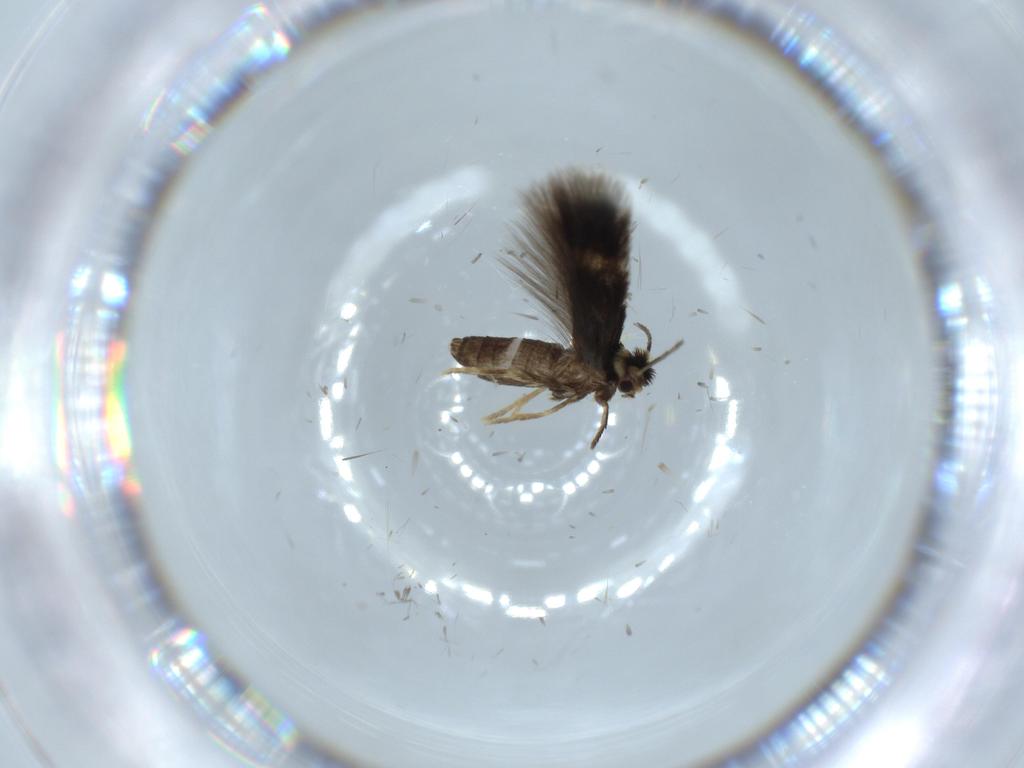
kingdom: Animalia
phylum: Arthropoda
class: Insecta
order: Lepidoptera
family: Nepticulidae
